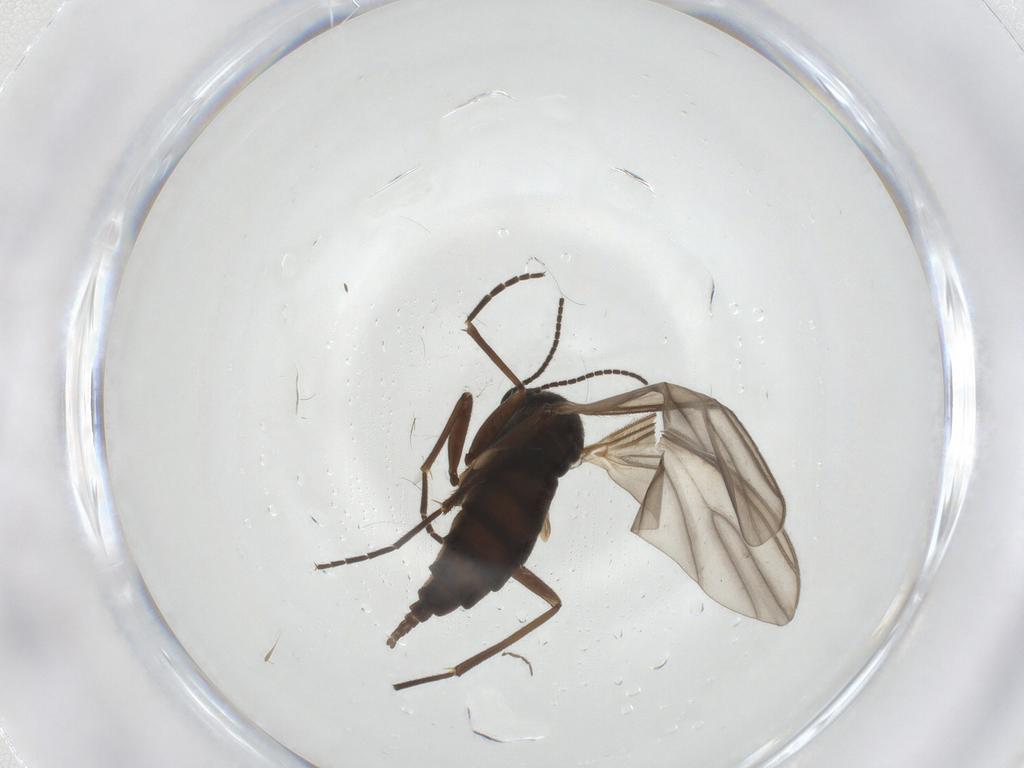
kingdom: Animalia
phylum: Arthropoda
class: Insecta
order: Diptera
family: Sciaridae
